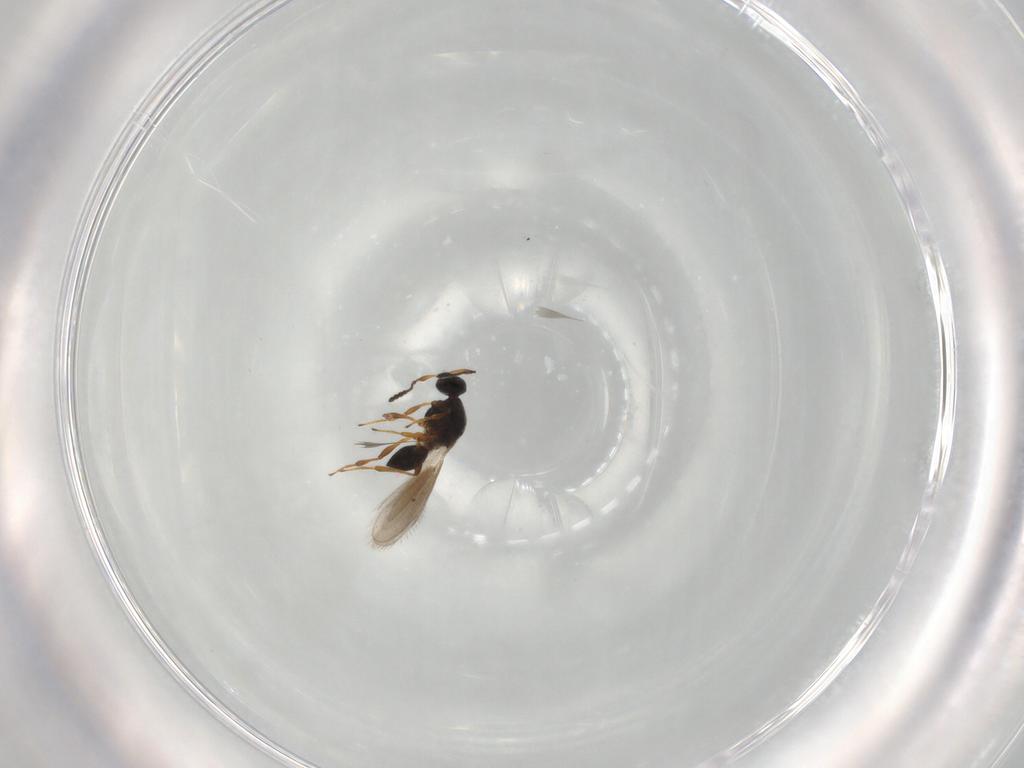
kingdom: Animalia
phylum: Arthropoda
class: Insecta
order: Hymenoptera
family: Platygastridae
